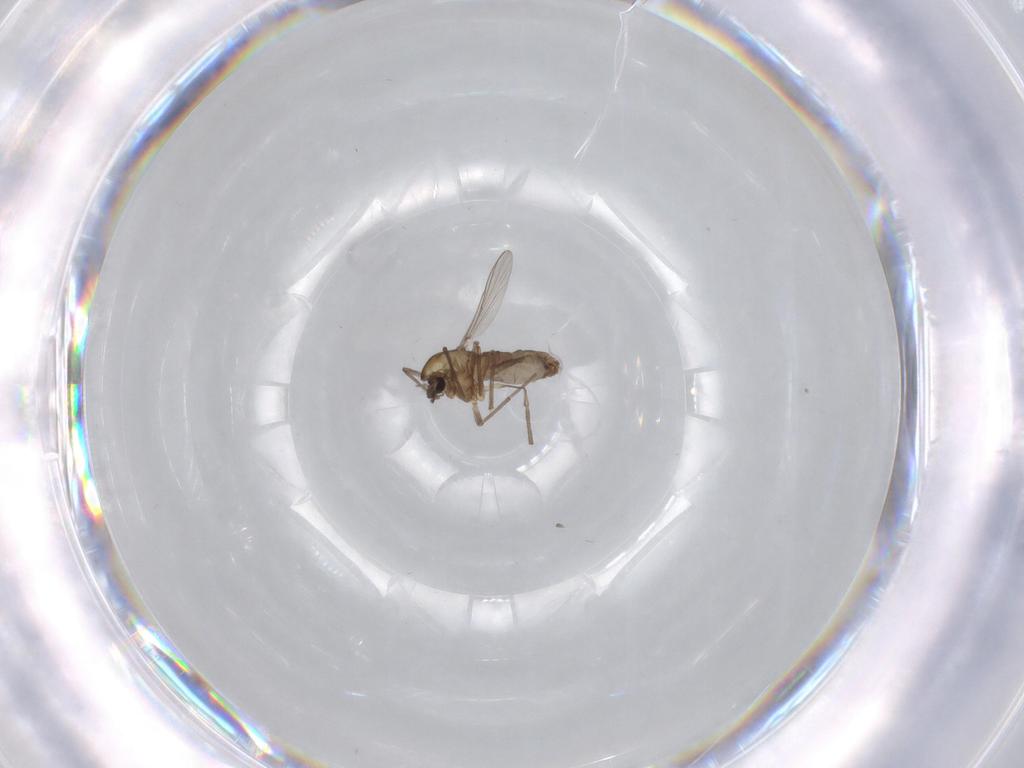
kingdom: Animalia
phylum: Arthropoda
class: Insecta
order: Diptera
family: Chironomidae
